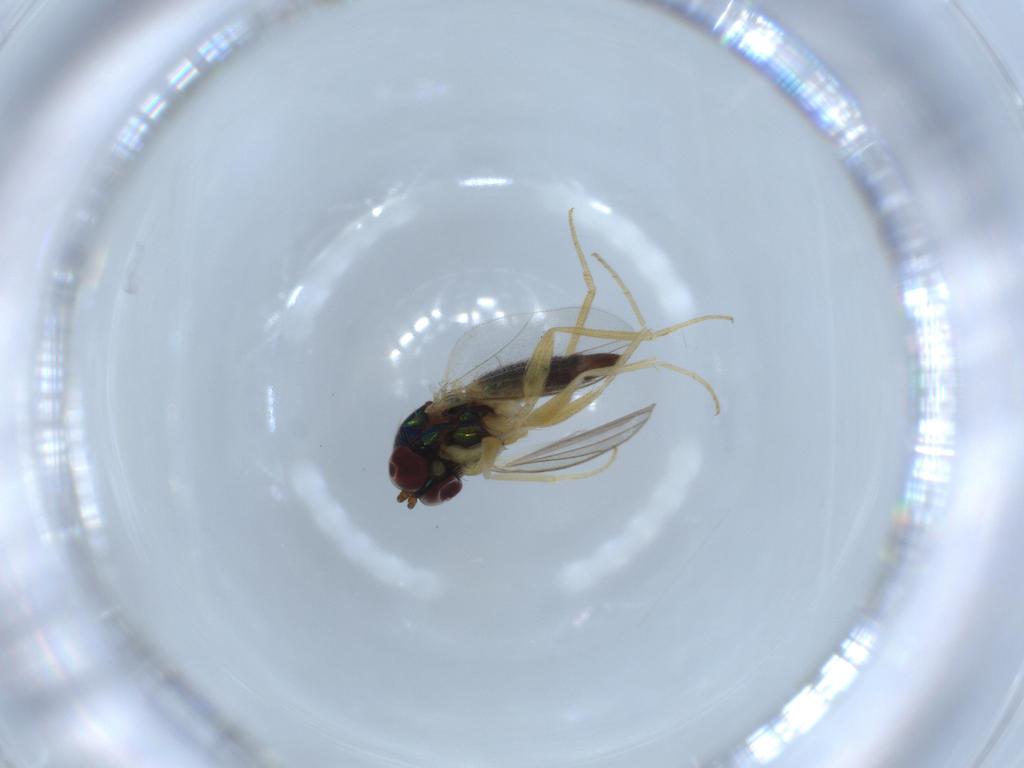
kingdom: Animalia
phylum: Arthropoda
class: Insecta
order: Diptera
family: Dolichopodidae
